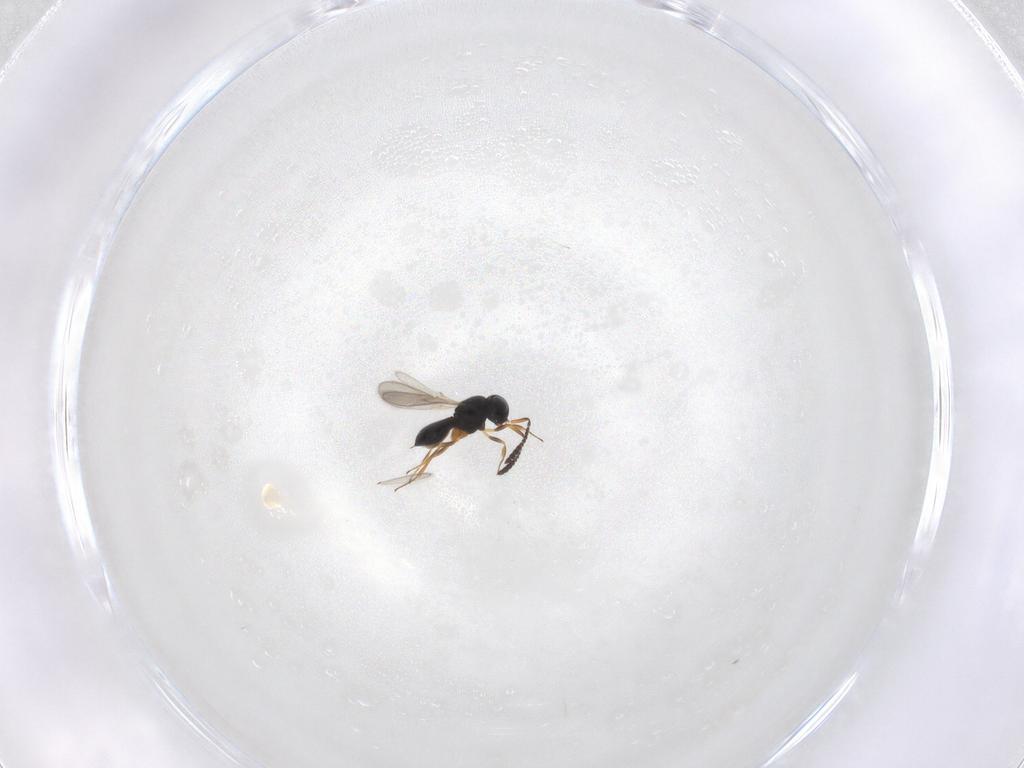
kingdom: Animalia
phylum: Arthropoda
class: Insecta
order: Hymenoptera
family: Scelionidae
